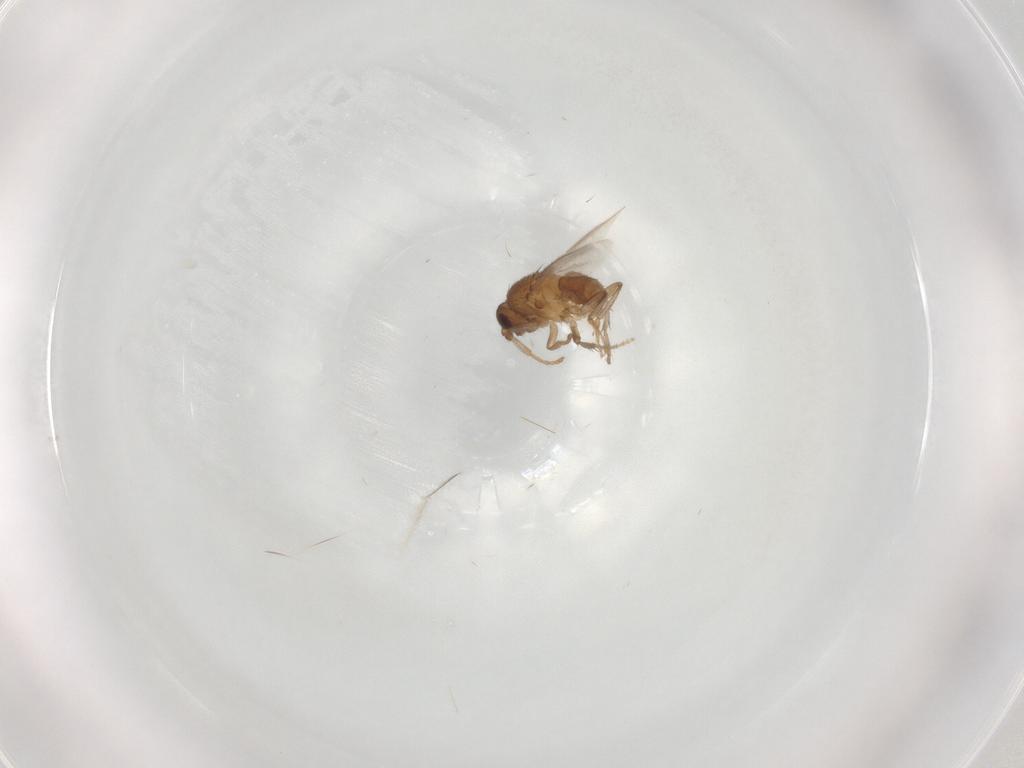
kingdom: Animalia
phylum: Arthropoda
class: Insecta
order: Diptera
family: Sphaeroceridae
